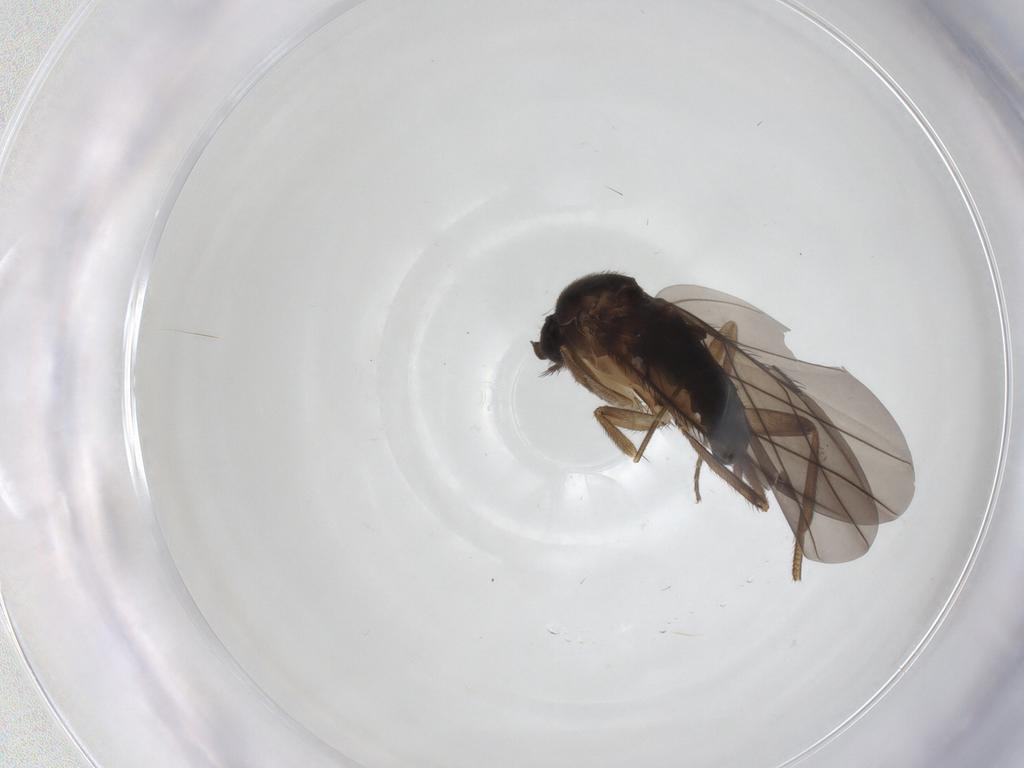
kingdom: Animalia
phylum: Arthropoda
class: Insecta
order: Diptera
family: Phoridae
